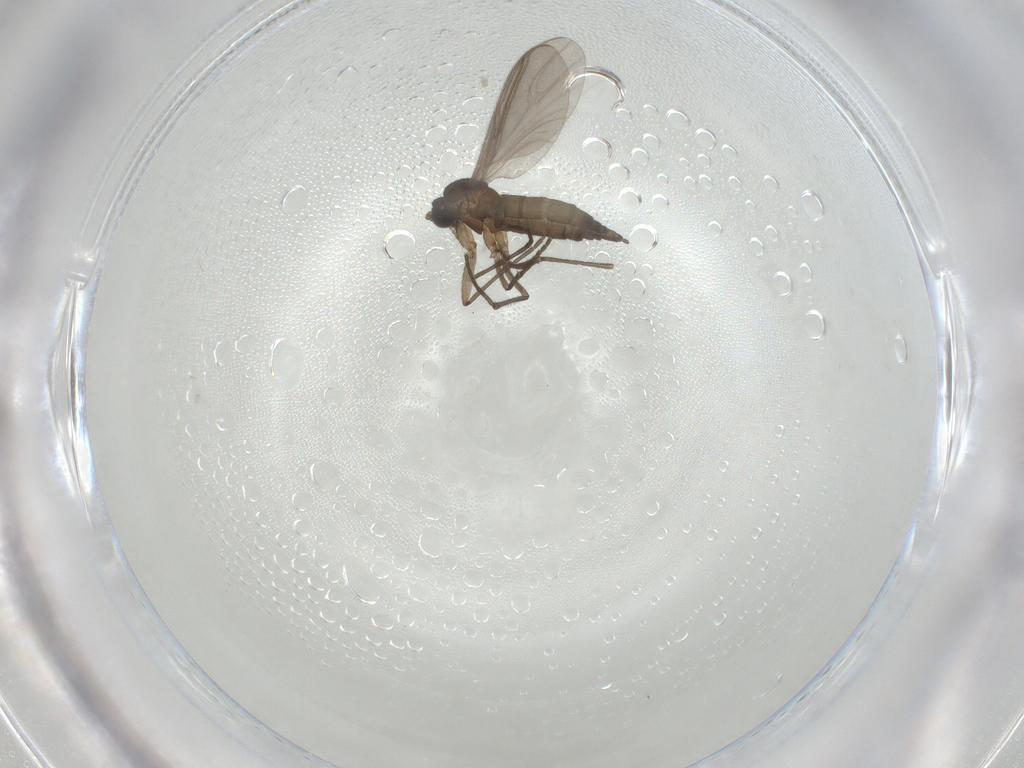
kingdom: Animalia
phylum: Arthropoda
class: Insecta
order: Diptera
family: Sciaridae
